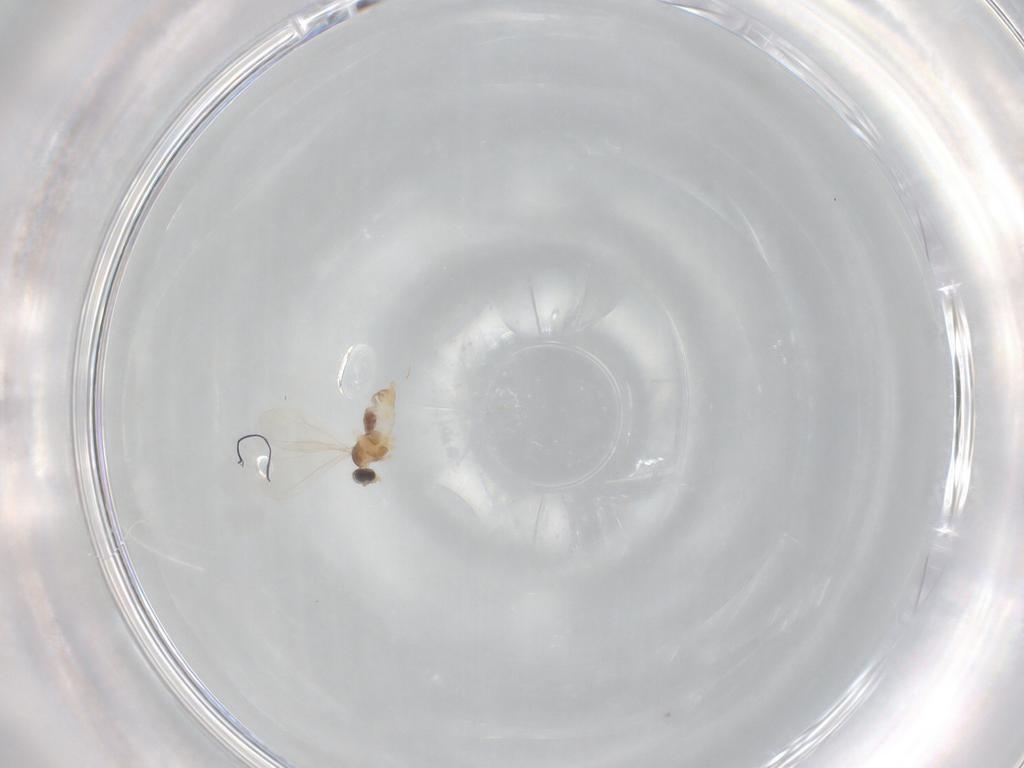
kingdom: Animalia
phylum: Arthropoda
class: Insecta
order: Diptera
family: Cecidomyiidae
